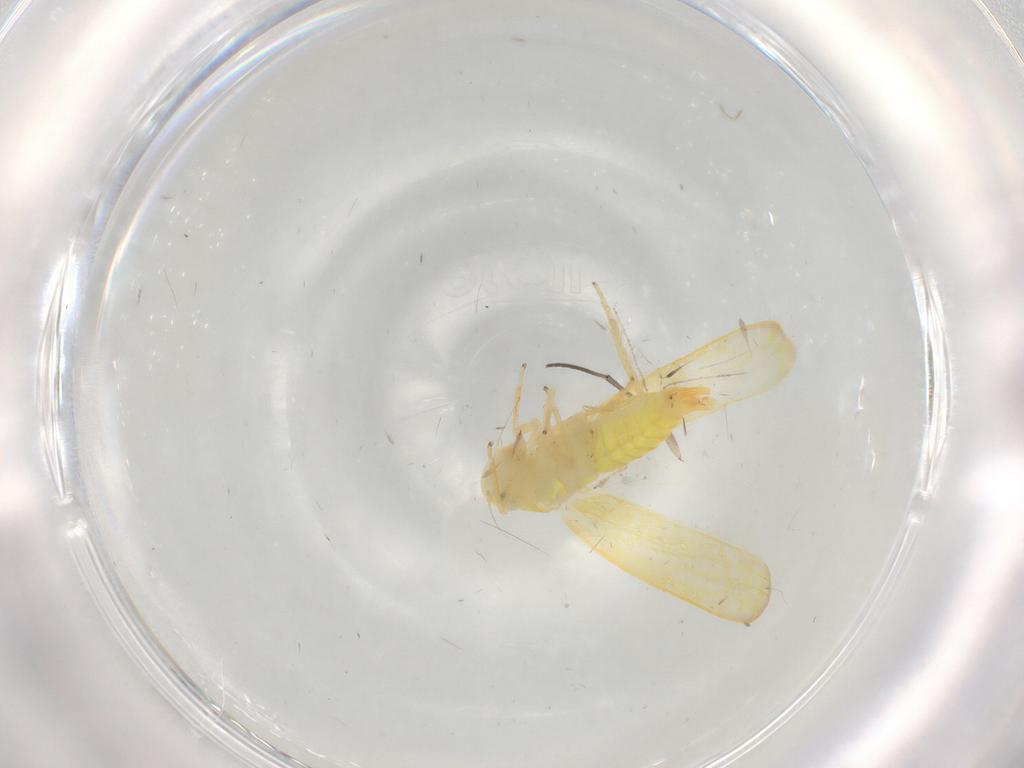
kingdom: Animalia
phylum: Arthropoda
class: Insecta
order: Hemiptera
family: Cicadellidae
